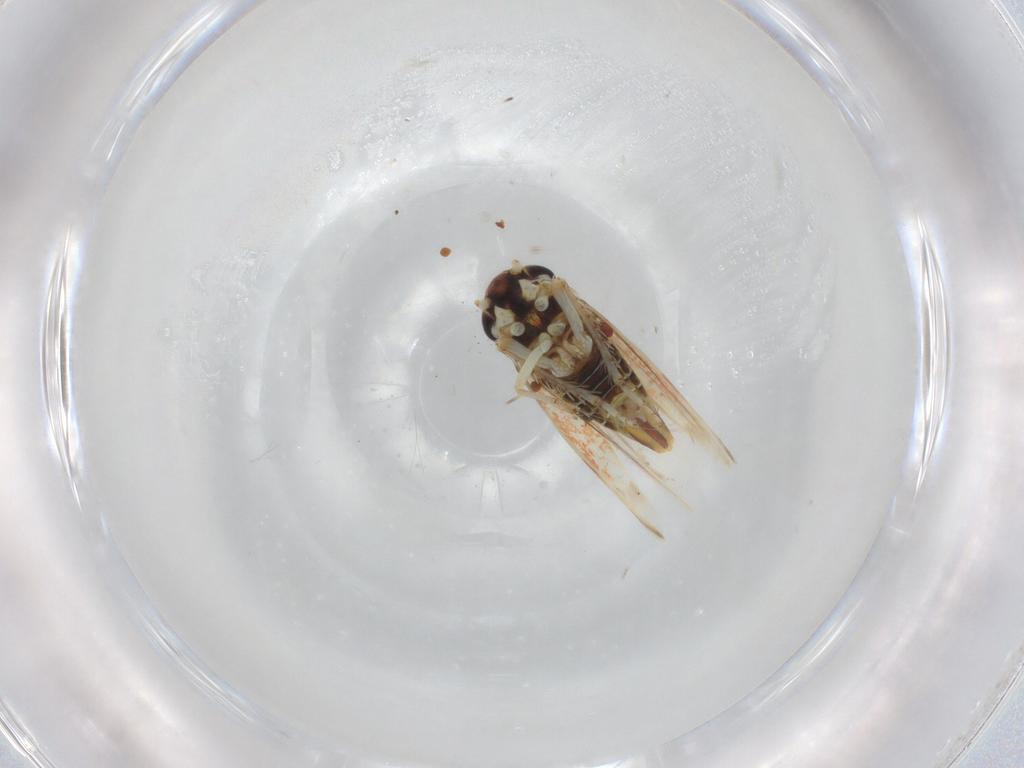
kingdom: Animalia
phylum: Arthropoda
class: Insecta
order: Hemiptera
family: Cicadellidae
